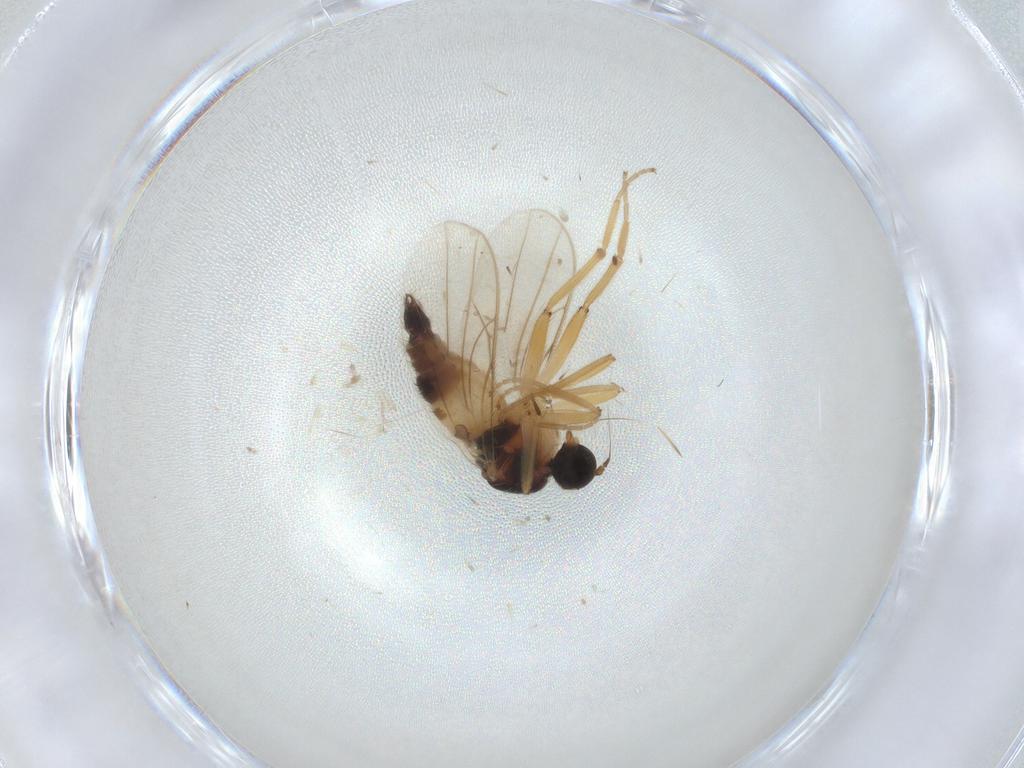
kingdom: Animalia
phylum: Arthropoda
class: Insecta
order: Diptera
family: Hybotidae
